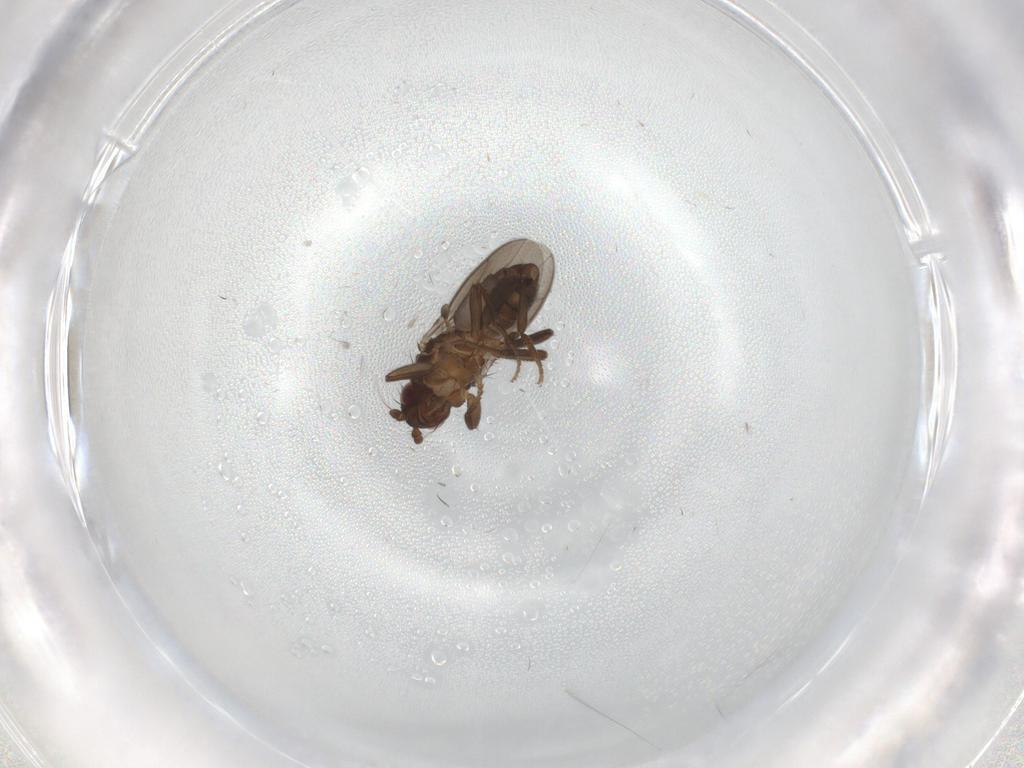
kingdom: Animalia
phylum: Arthropoda
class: Insecta
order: Diptera
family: Sphaeroceridae
